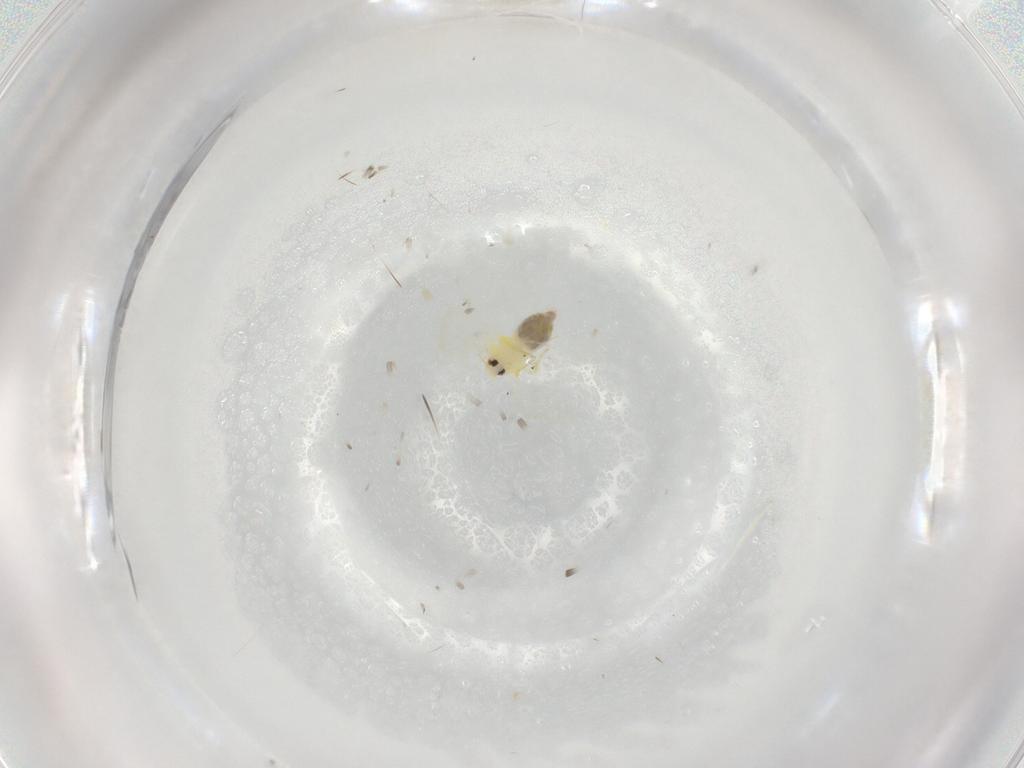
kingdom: Animalia
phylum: Arthropoda
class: Insecta
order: Hemiptera
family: Aleyrodidae
